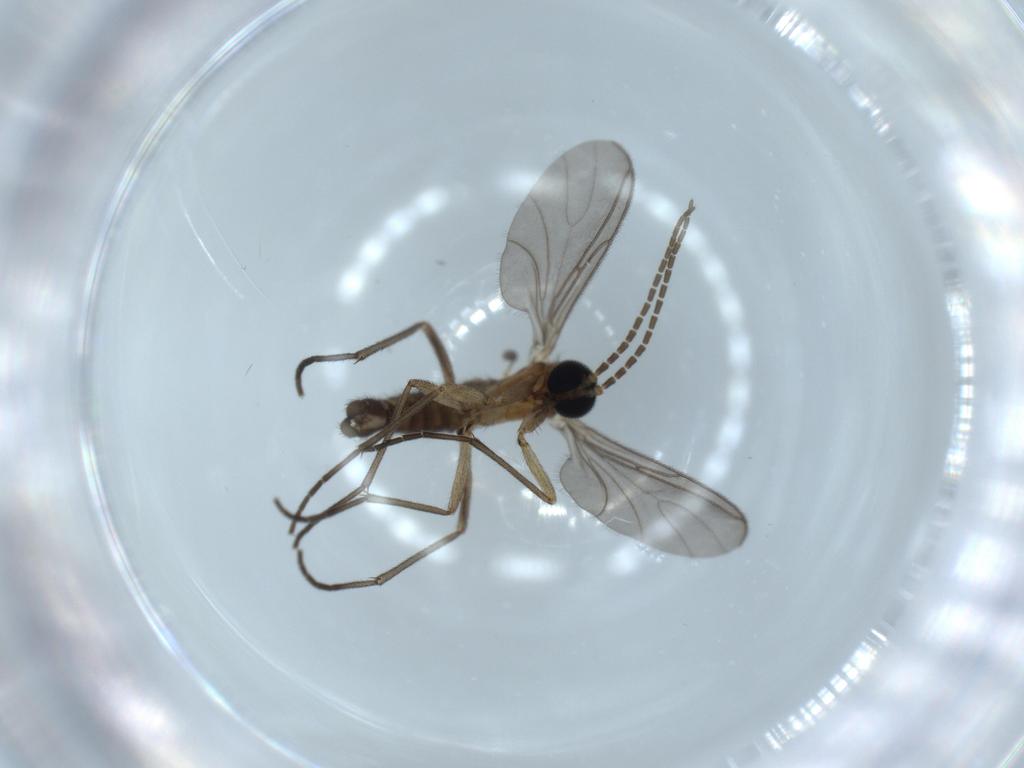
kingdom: Animalia
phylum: Arthropoda
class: Insecta
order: Diptera
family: Sciaridae
